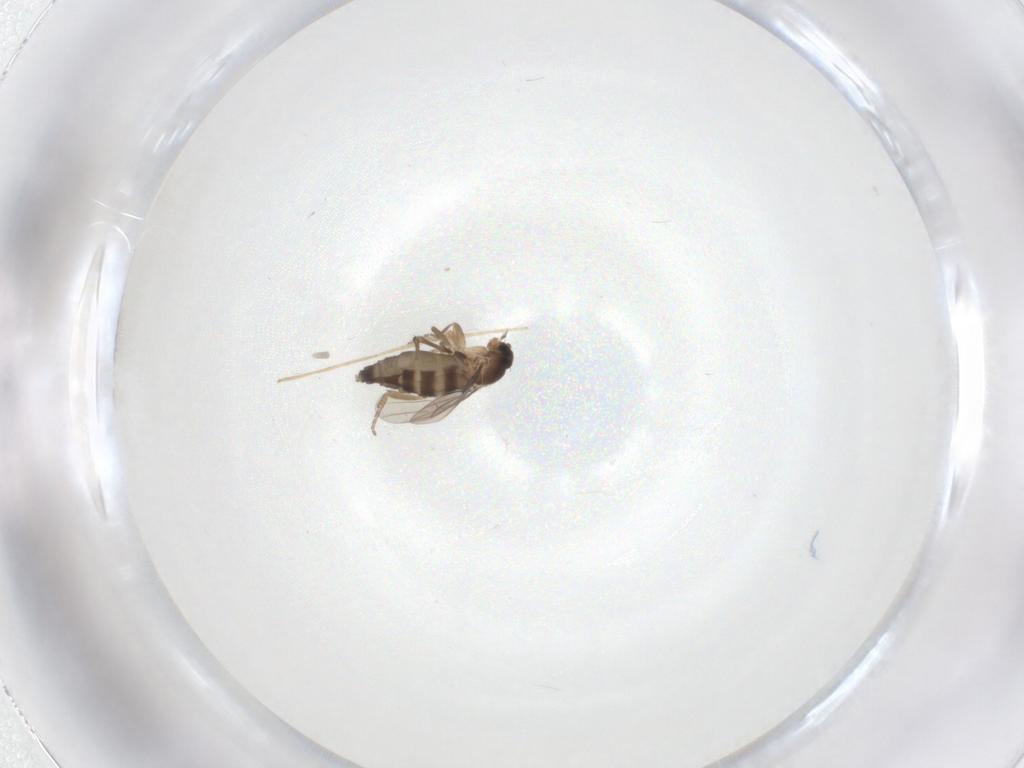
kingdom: Animalia
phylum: Arthropoda
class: Insecta
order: Diptera
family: Phoridae
